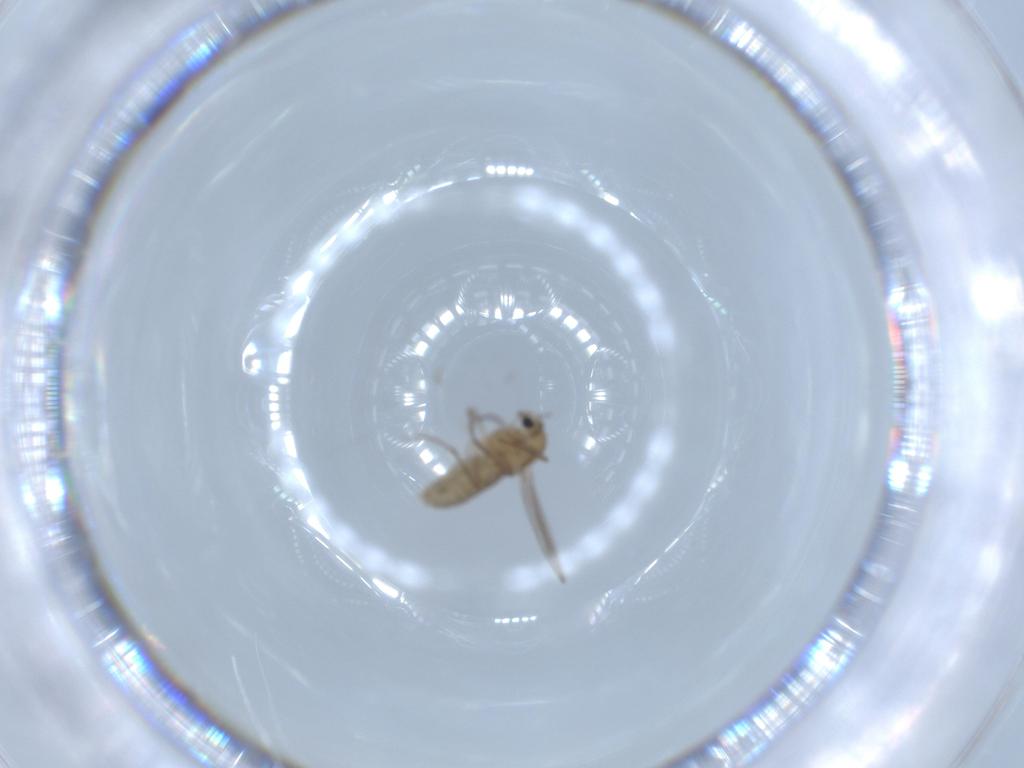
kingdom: Animalia
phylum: Arthropoda
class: Insecta
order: Diptera
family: Chironomidae
